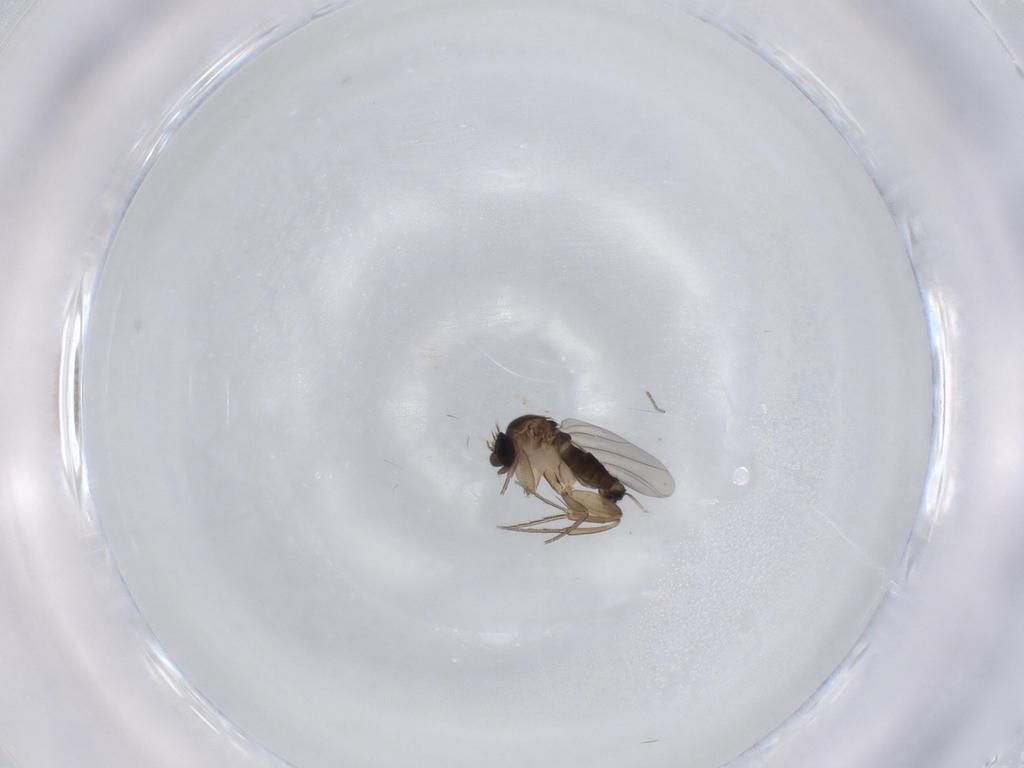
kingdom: Animalia
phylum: Arthropoda
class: Insecta
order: Diptera
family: Cecidomyiidae
